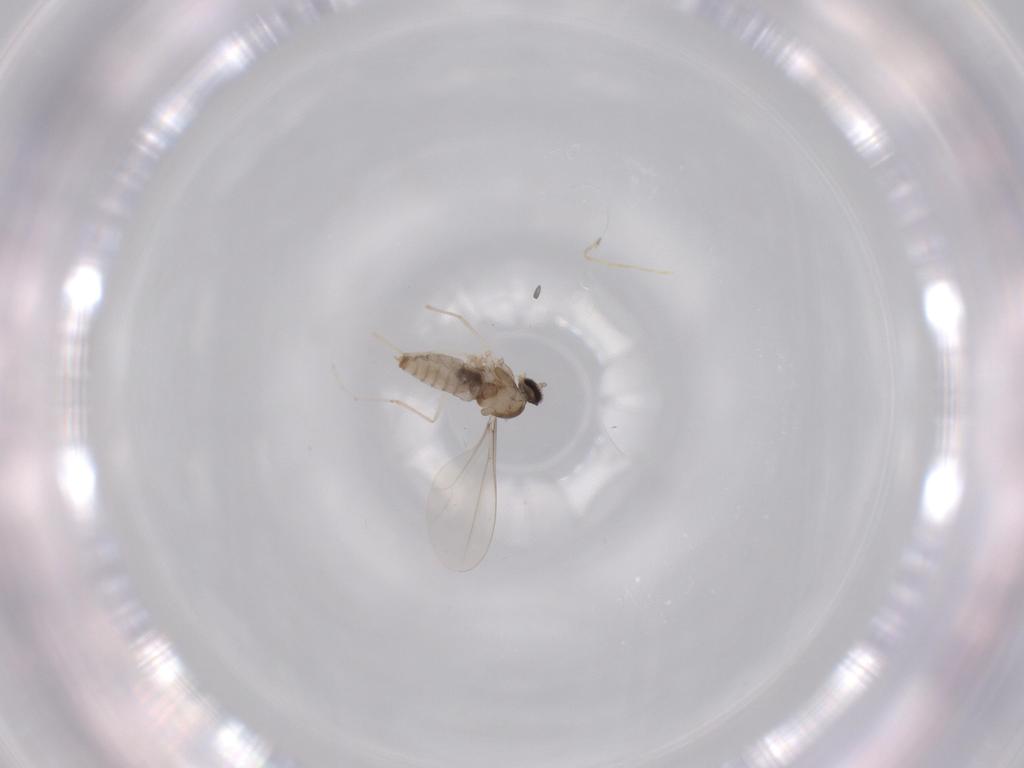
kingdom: Animalia
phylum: Arthropoda
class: Insecta
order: Diptera
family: Cecidomyiidae
